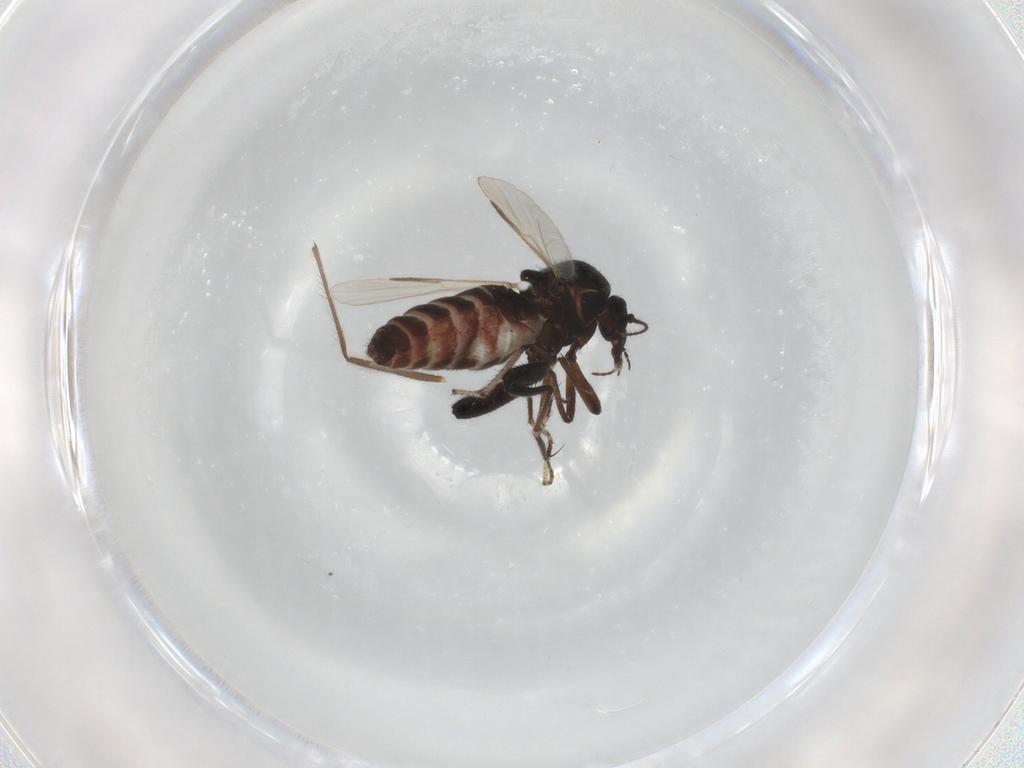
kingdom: Animalia
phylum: Arthropoda
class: Insecta
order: Diptera
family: Ceratopogonidae
